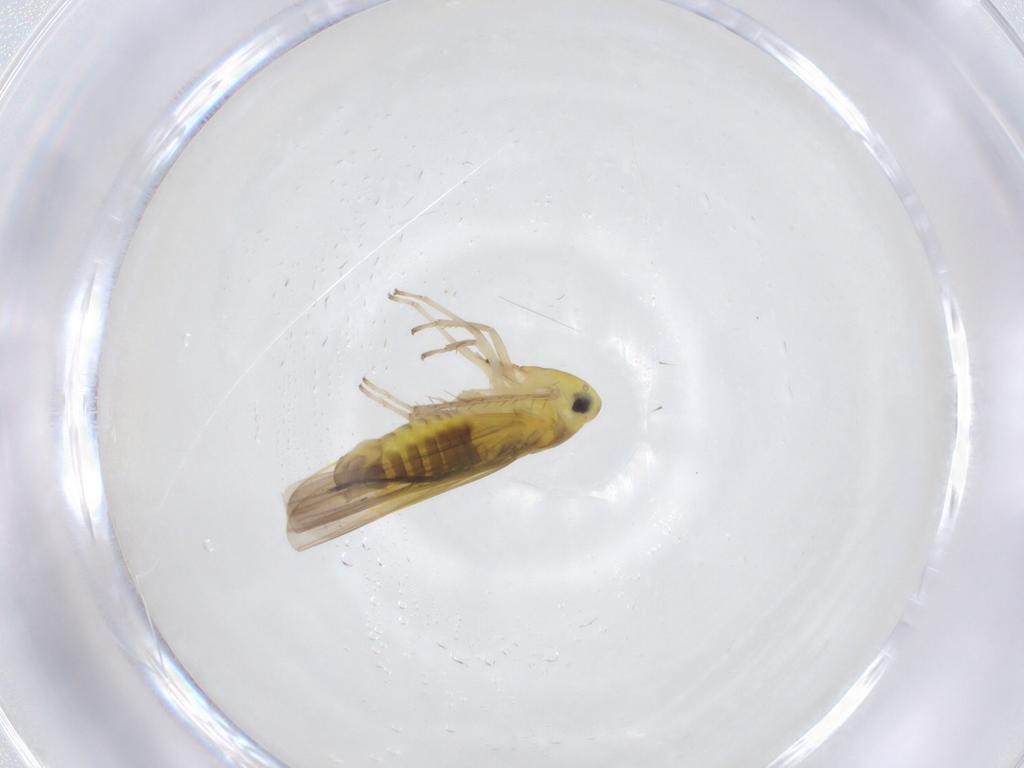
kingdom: Animalia
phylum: Arthropoda
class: Insecta
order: Hemiptera
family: Cicadellidae
